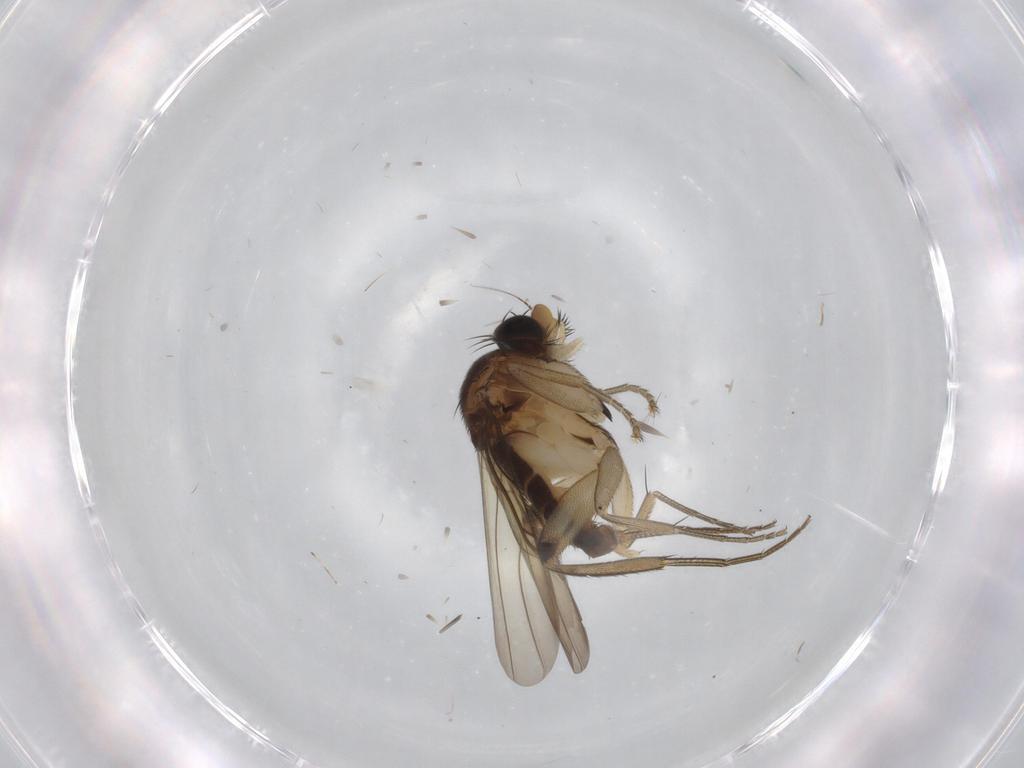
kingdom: Animalia
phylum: Arthropoda
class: Insecta
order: Diptera
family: Phoridae
